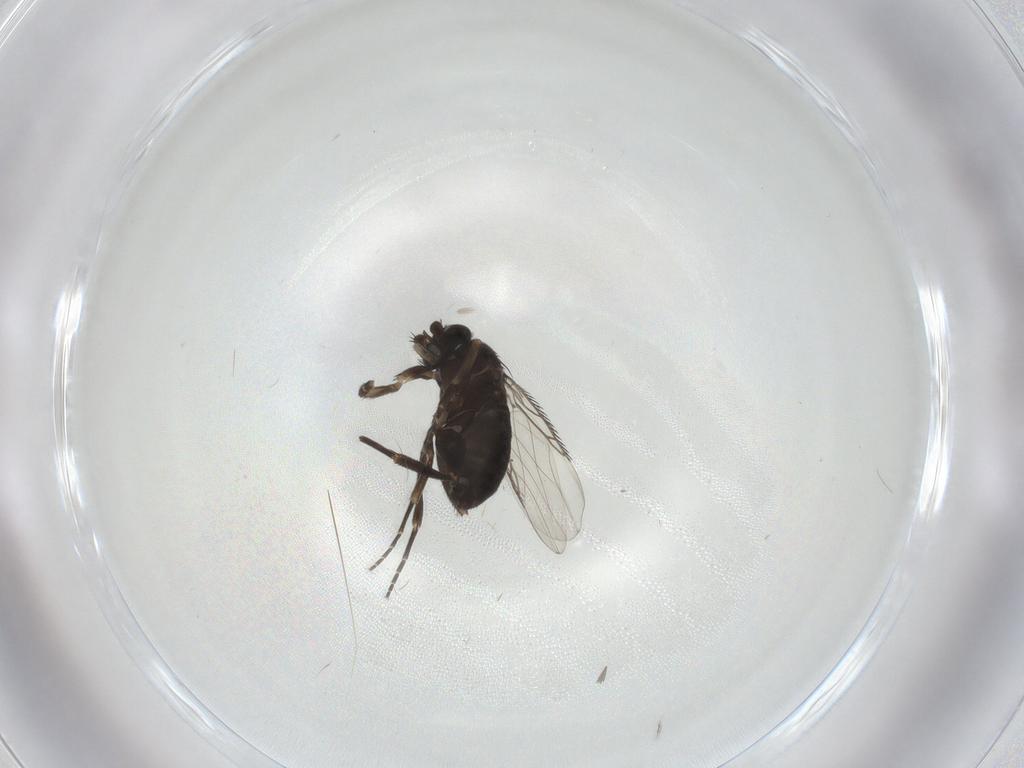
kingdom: Animalia
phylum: Arthropoda
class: Insecta
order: Diptera
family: Phoridae
